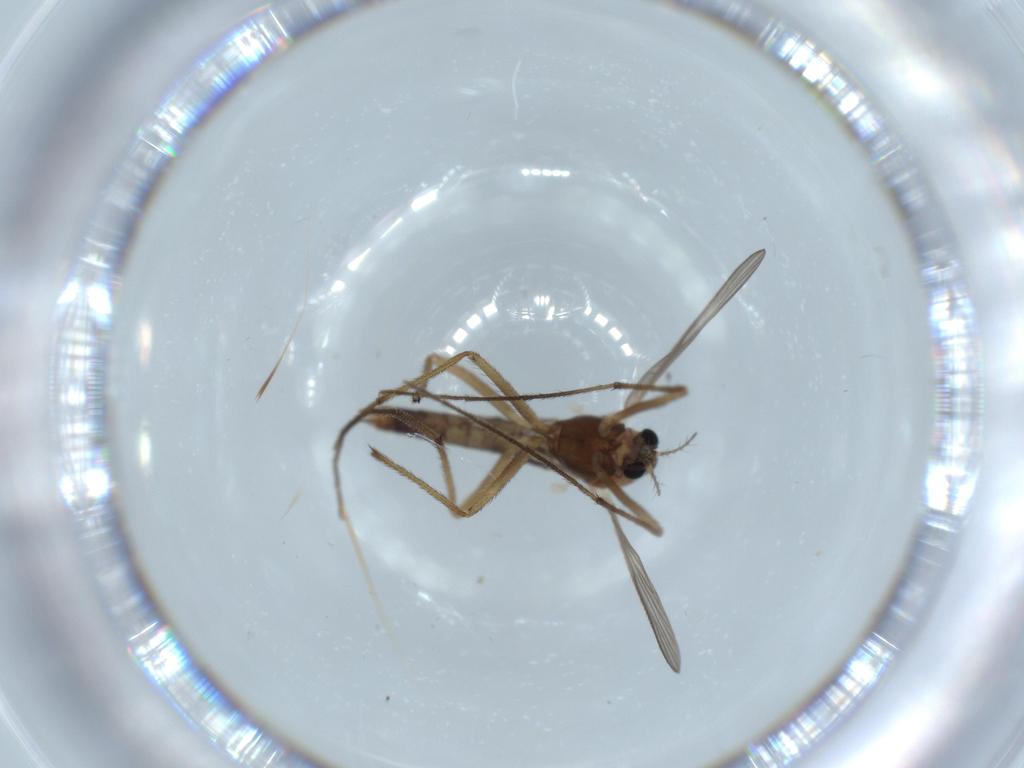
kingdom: Animalia
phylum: Arthropoda
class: Insecta
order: Diptera
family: Chironomidae
